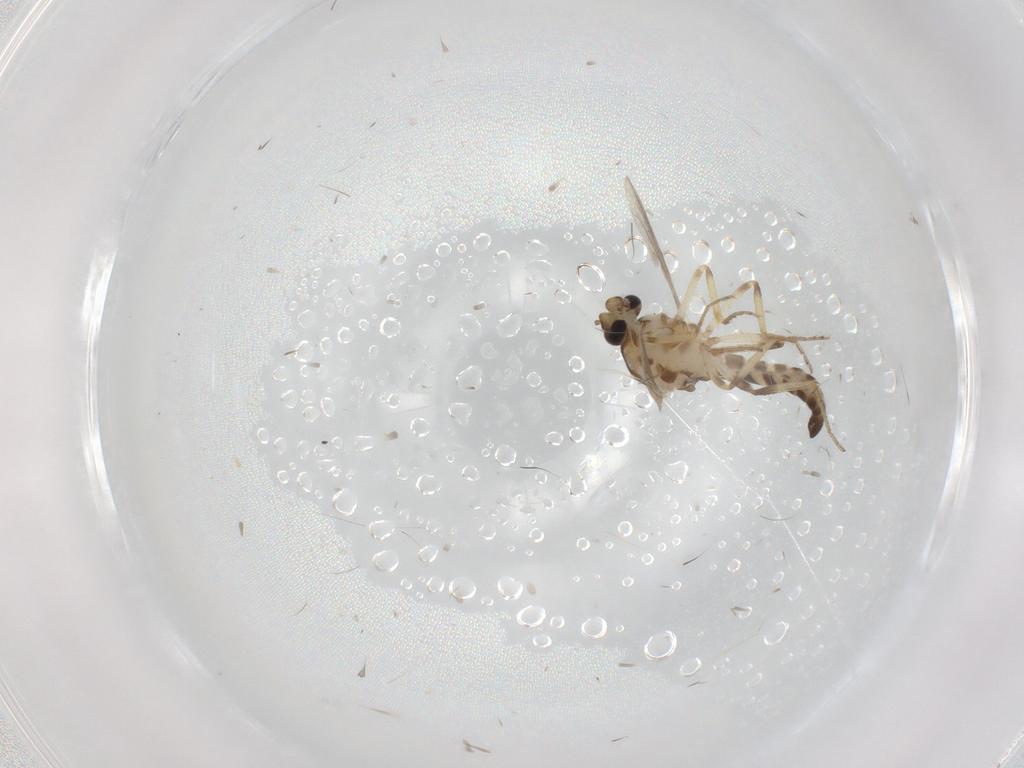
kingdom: Animalia
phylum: Arthropoda
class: Insecta
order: Diptera
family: Ceratopogonidae
